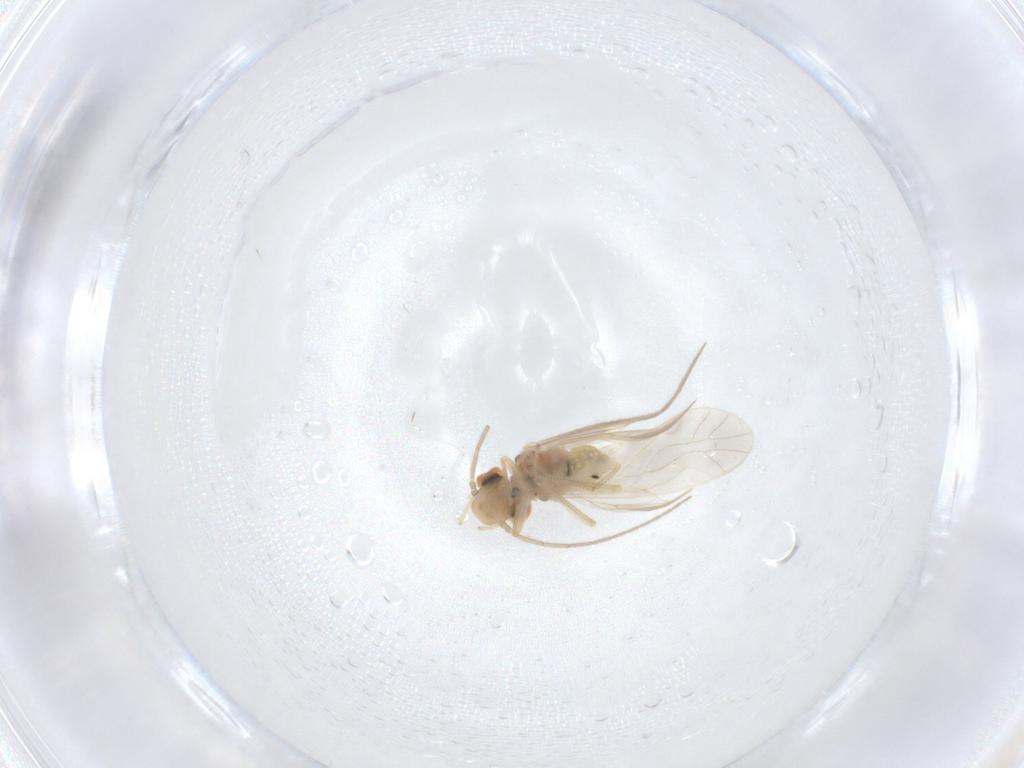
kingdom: Animalia
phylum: Arthropoda
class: Insecta
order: Psocodea
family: Caeciliusidae
